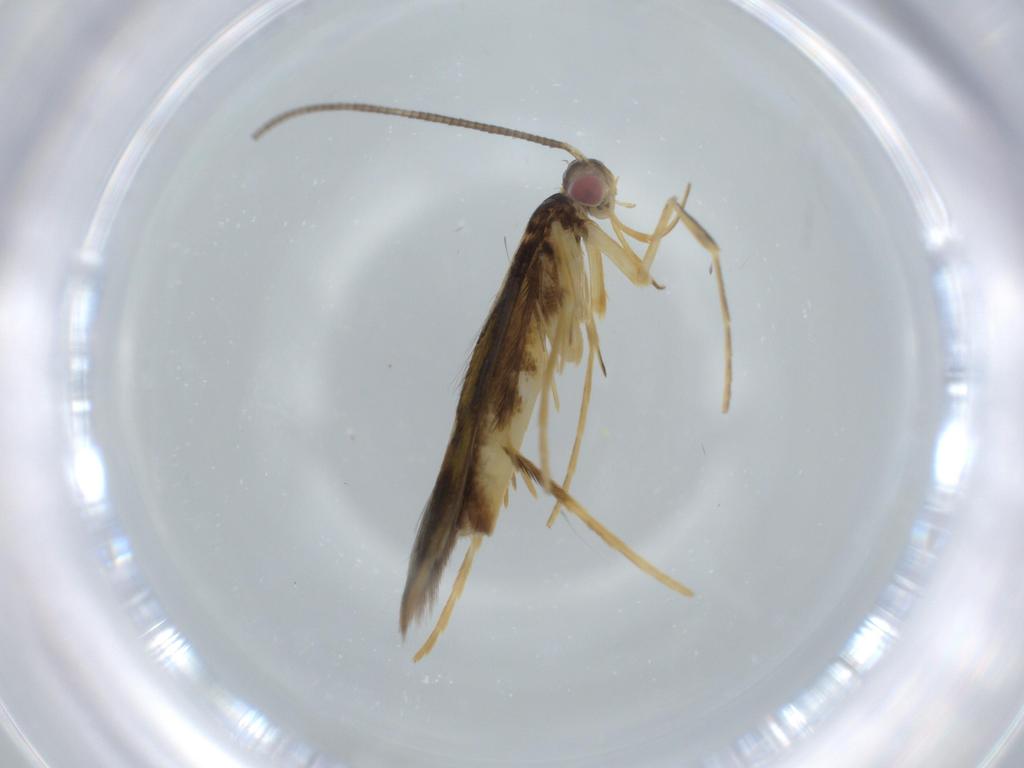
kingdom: Animalia
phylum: Arthropoda
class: Insecta
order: Lepidoptera
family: Gracillariidae
